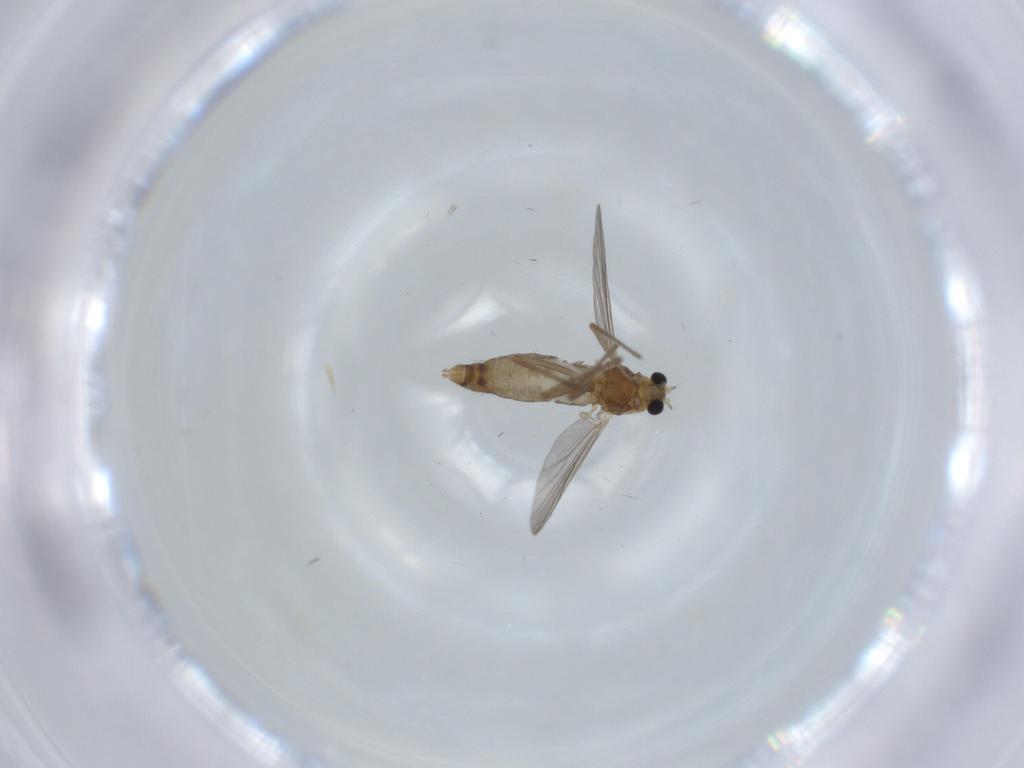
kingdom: Animalia
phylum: Arthropoda
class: Insecta
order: Diptera
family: Chironomidae
